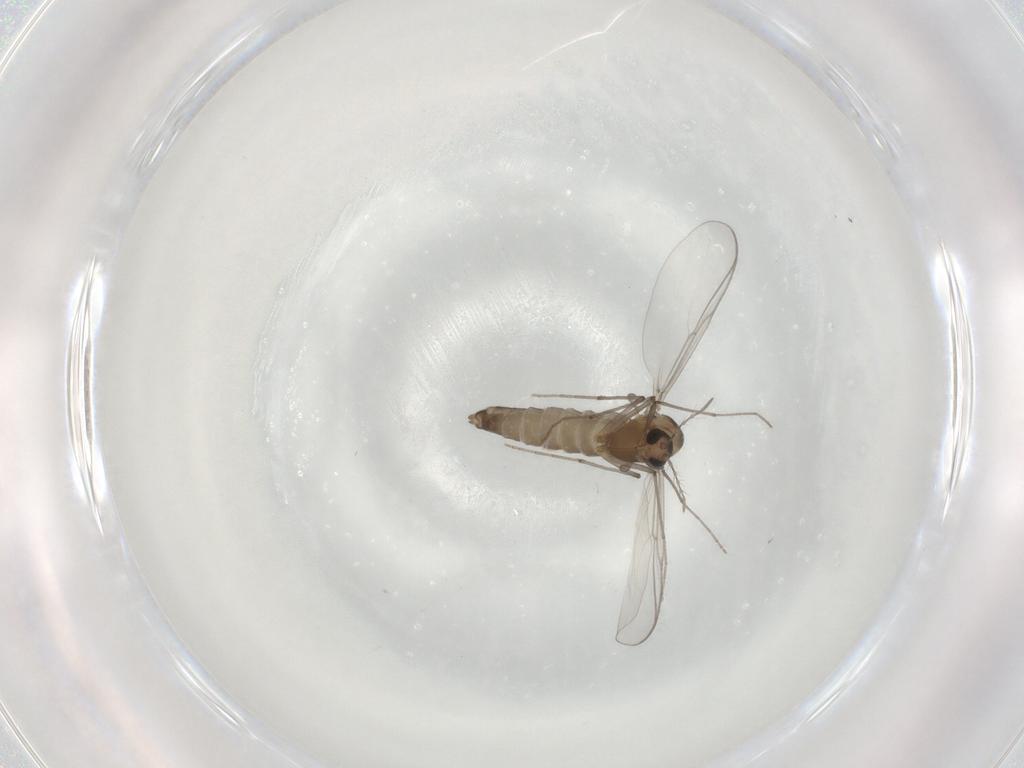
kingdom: Animalia
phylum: Arthropoda
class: Insecta
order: Diptera
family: Chironomidae
